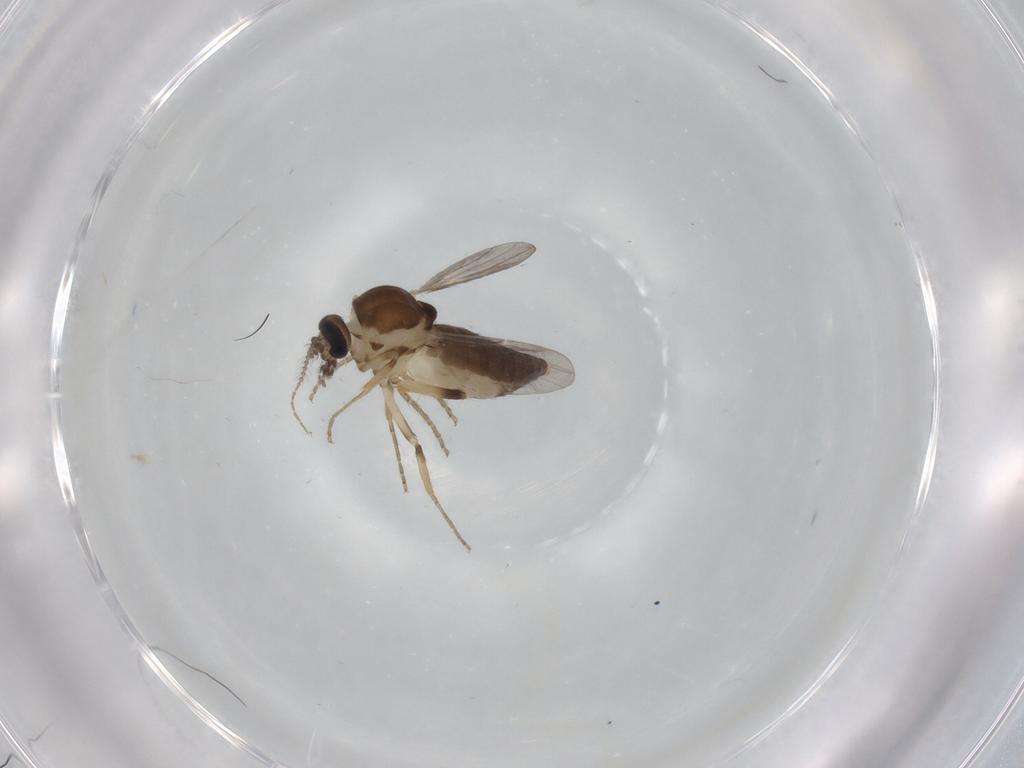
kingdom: Animalia
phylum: Arthropoda
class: Insecta
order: Diptera
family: Ceratopogonidae
